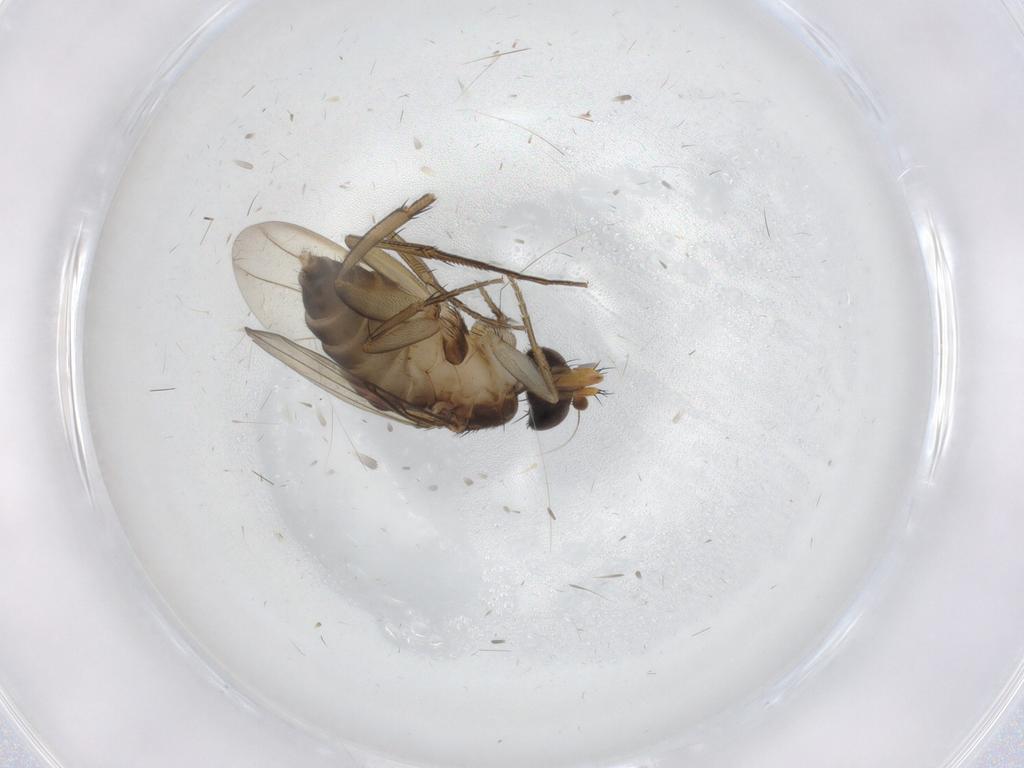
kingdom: Animalia
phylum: Arthropoda
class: Insecta
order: Diptera
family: Phoridae
